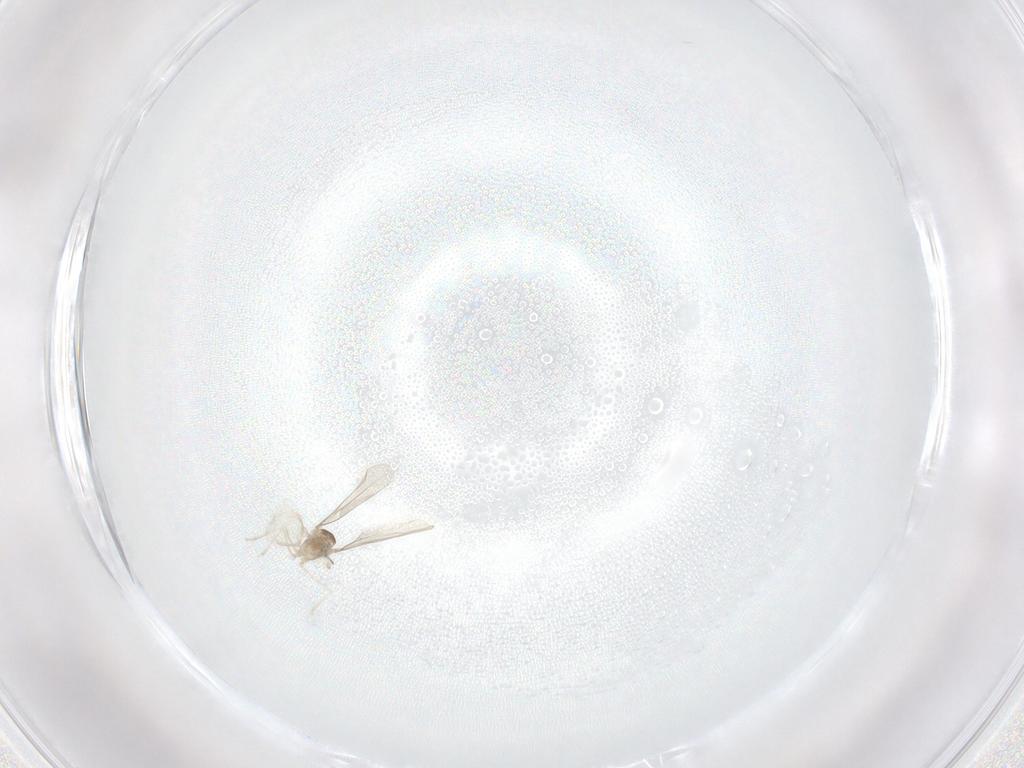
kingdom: Animalia
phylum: Arthropoda
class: Insecta
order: Diptera
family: Cecidomyiidae
